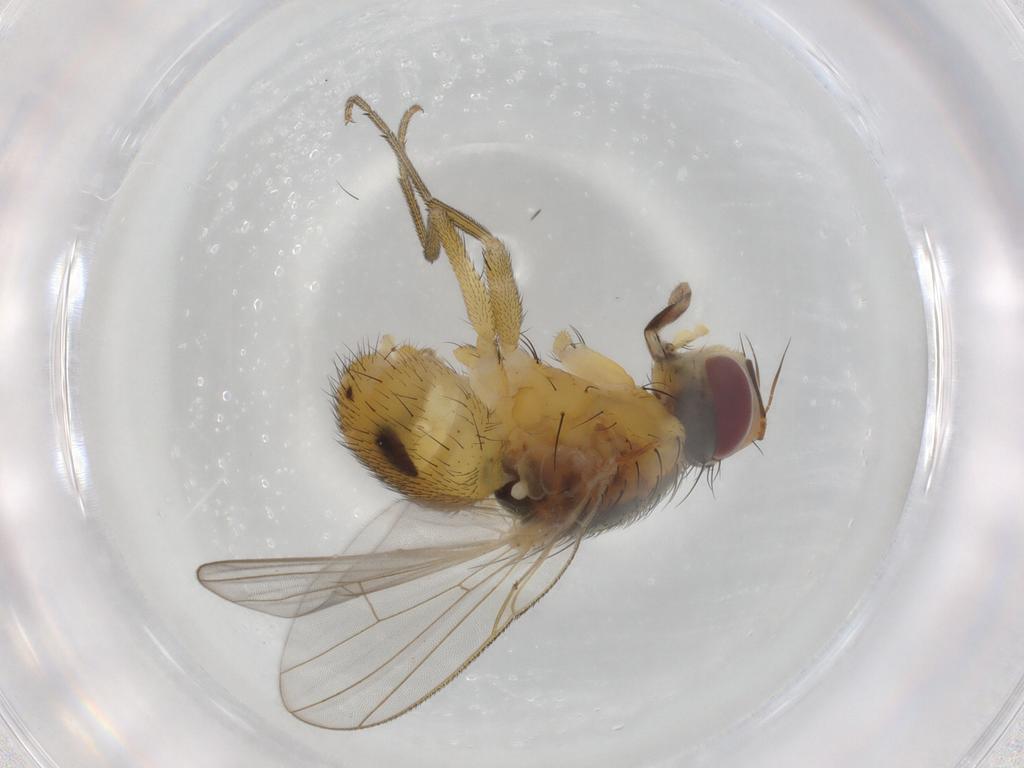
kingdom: Animalia
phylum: Arthropoda
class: Insecta
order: Diptera
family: Muscidae
